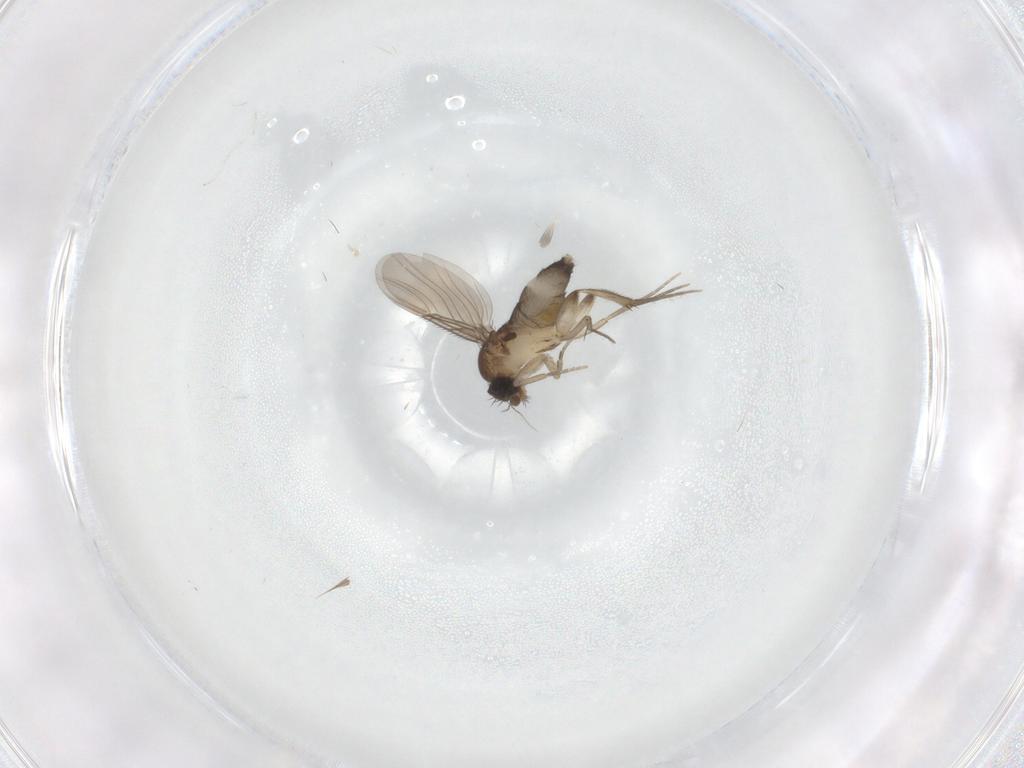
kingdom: Animalia
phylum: Arthropoda
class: Insecta
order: Diptera
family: Phoridae
